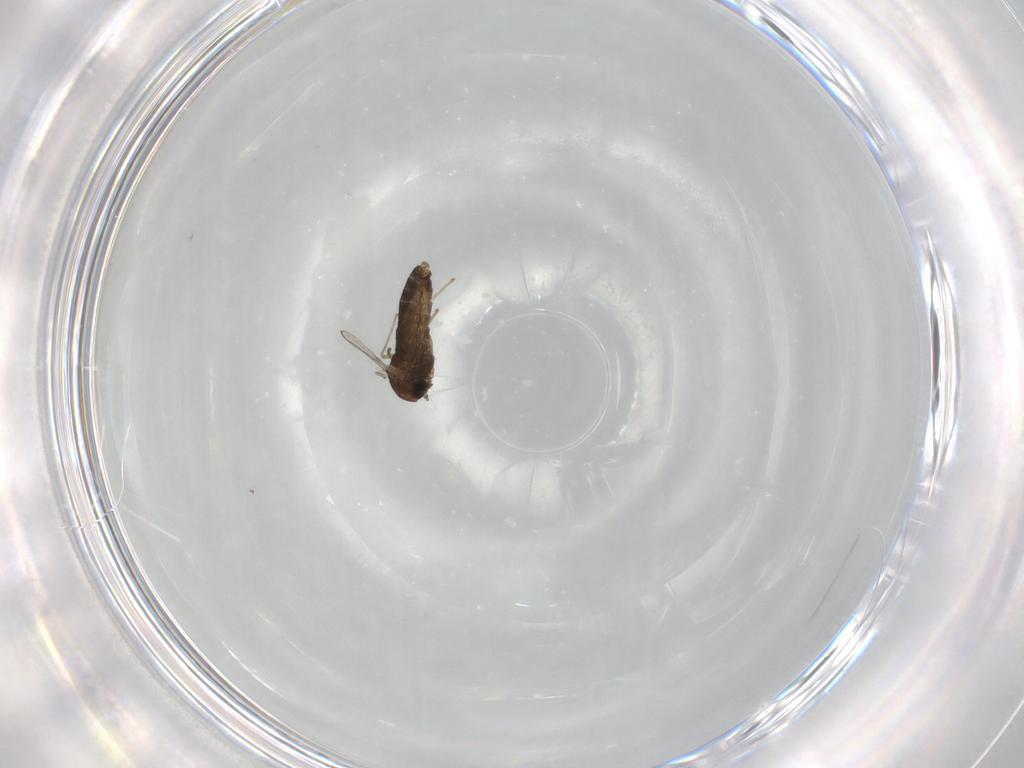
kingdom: Animalia
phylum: Arthropoda
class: Insecta
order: Diptera
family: Chironomidae
